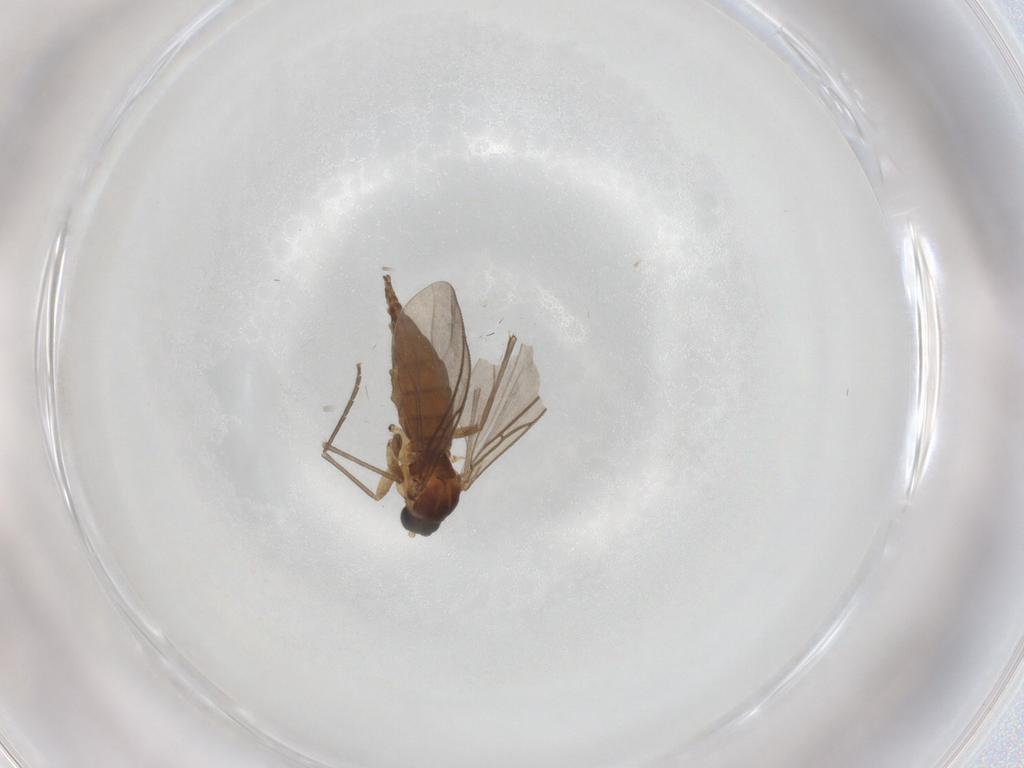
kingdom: Animalia
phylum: Arthropoda
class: Insecta
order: Diptera
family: Sciaridae
